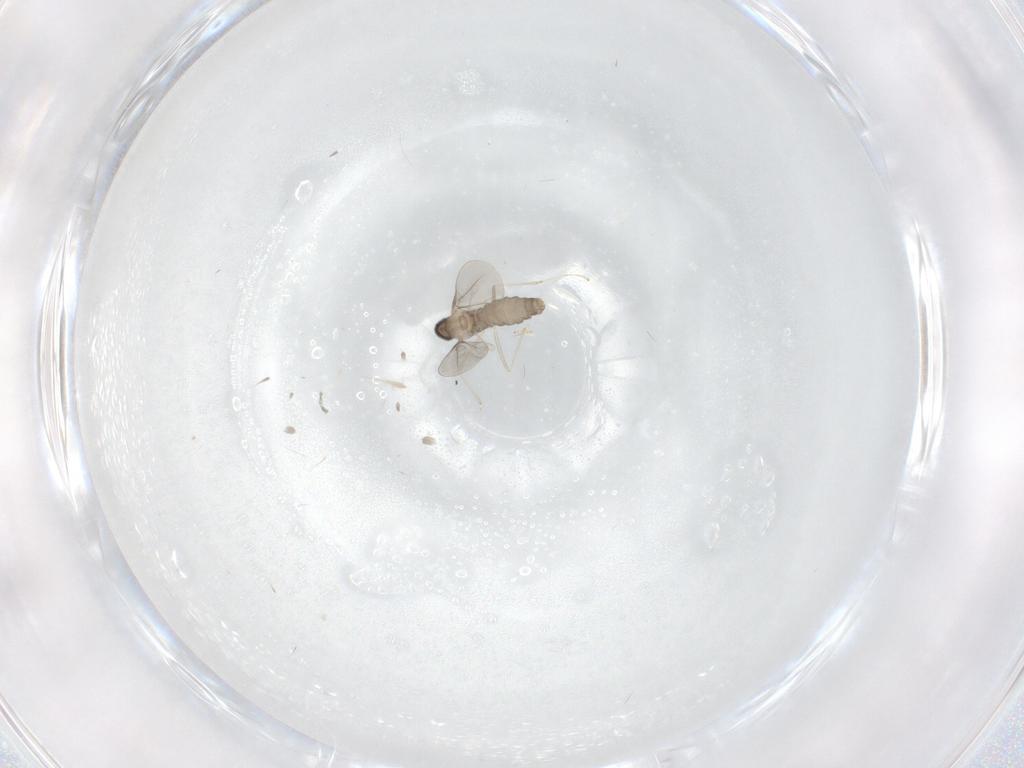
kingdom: Animalia
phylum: Arthropoda
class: Insecta
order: Diptera
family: Cecidomyiidae
